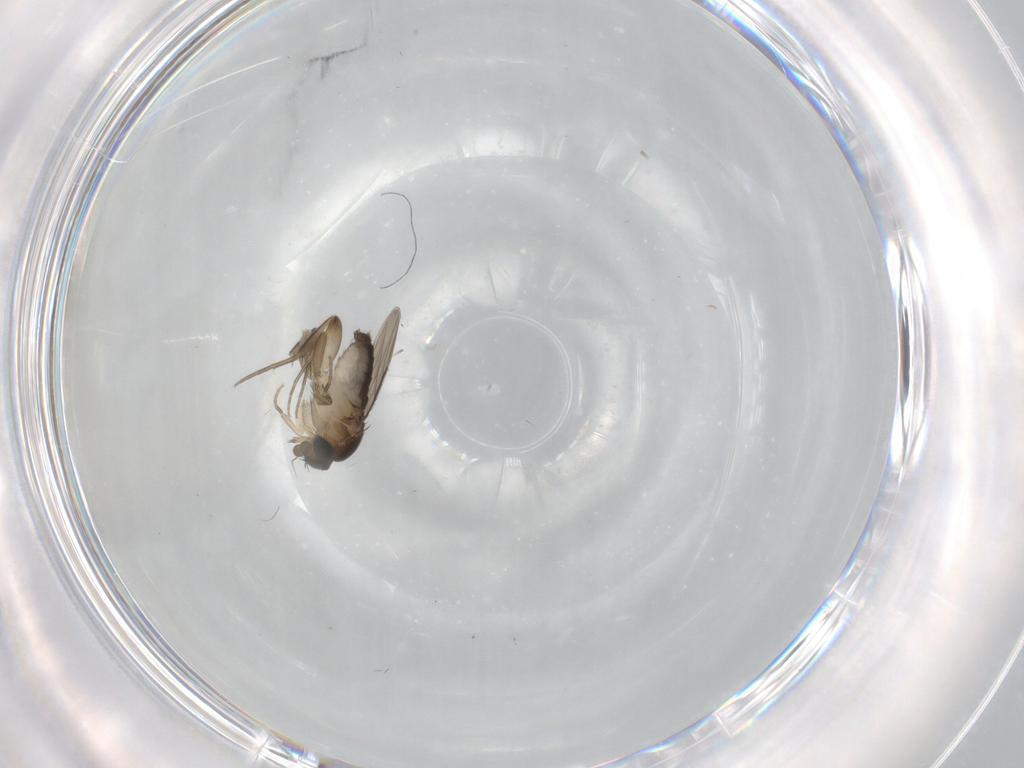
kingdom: Animalia
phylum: Arthropoda
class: Insecta
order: Diptera
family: Phoridae
